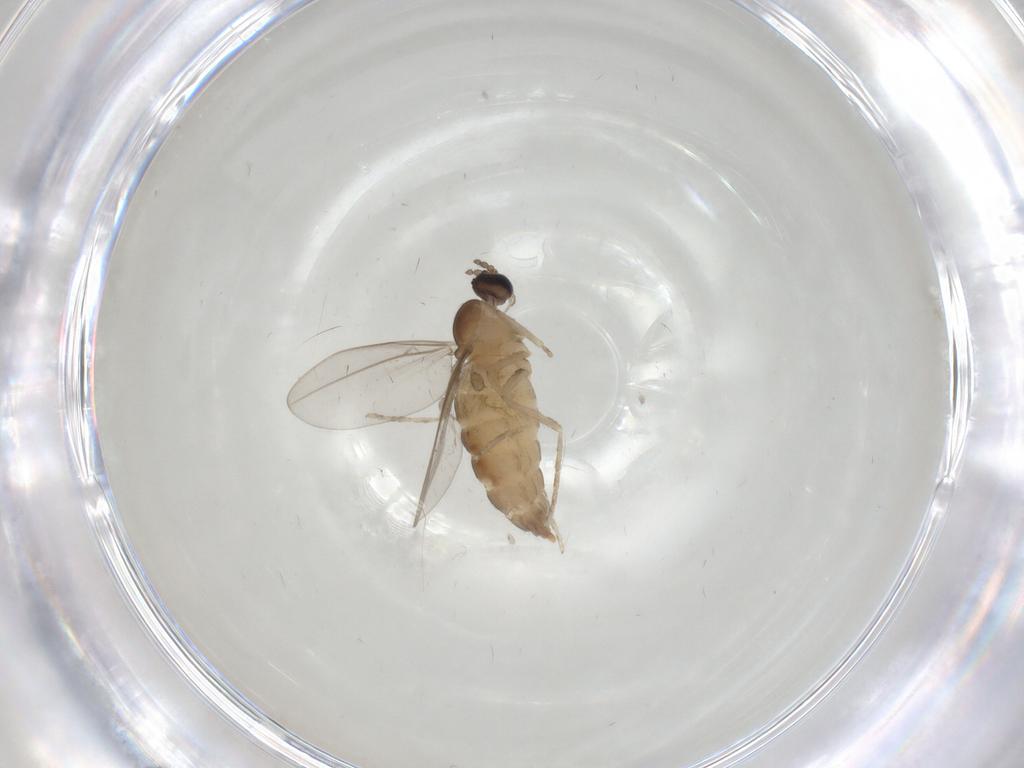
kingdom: Animalia
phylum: Arthropoda
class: Insecta
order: Diptera
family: Cecidomyiidae
